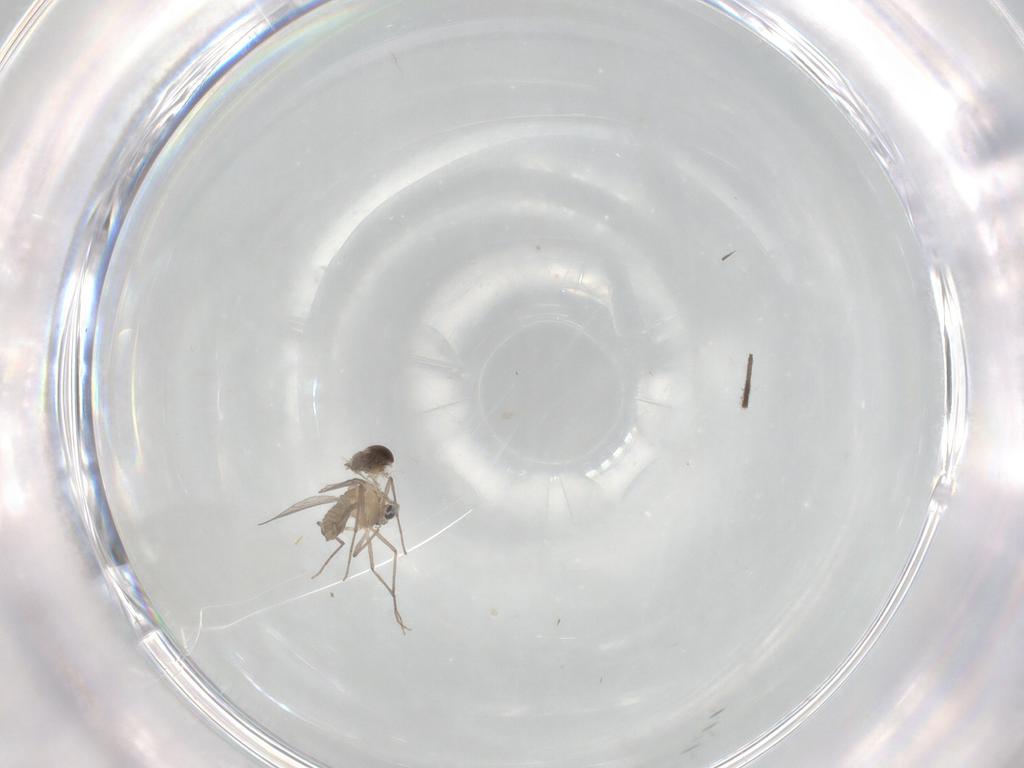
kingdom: Animalia
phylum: Arthropoda
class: Insecta
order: Diptera
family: Chironomidae
